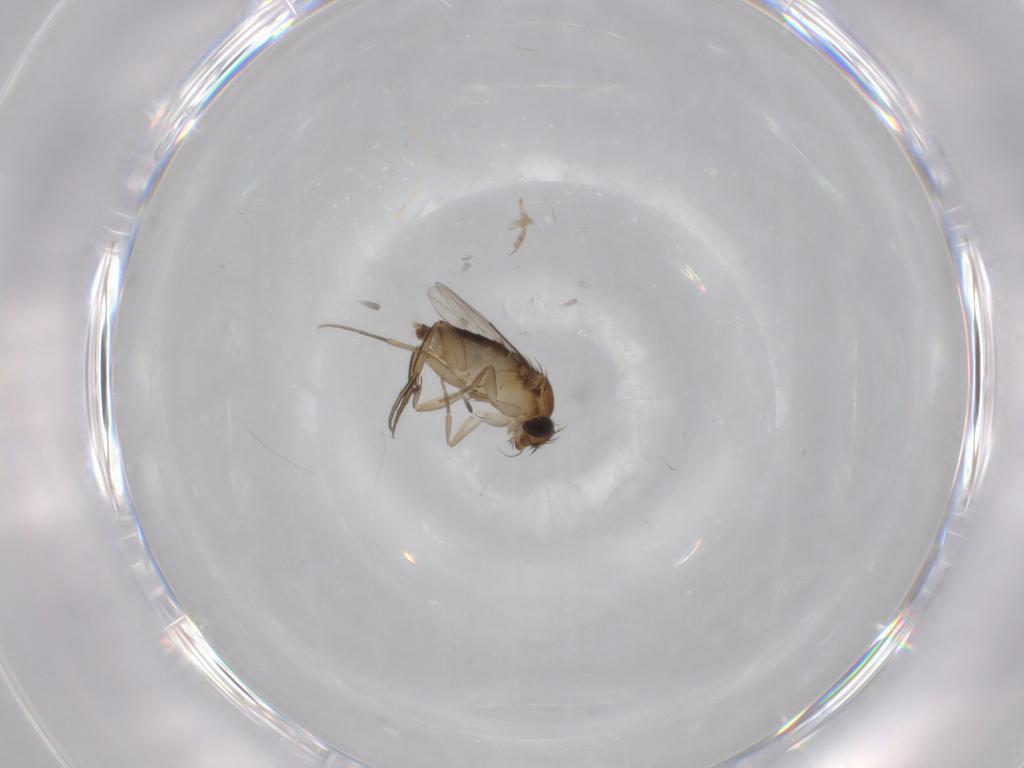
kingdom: Animalia
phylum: Arthropoda
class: Insecta
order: Diptera
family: Phoridae
